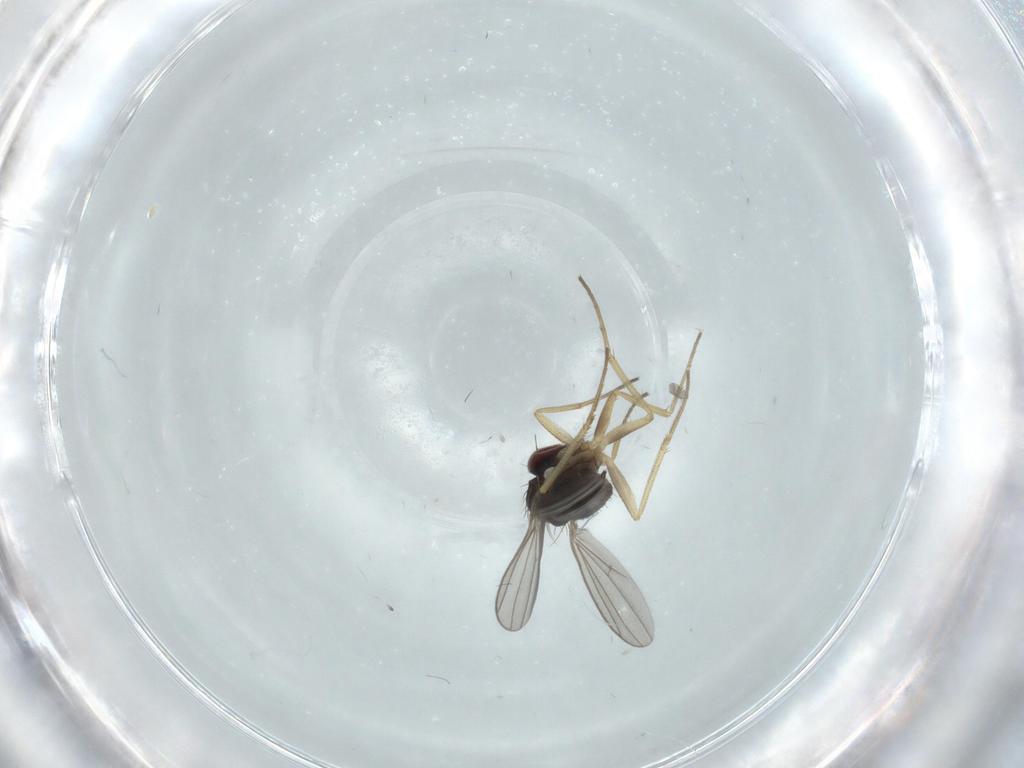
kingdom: Animalia
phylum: Arthropoda
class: Insecta
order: Diptera
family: Dolichopodidae
